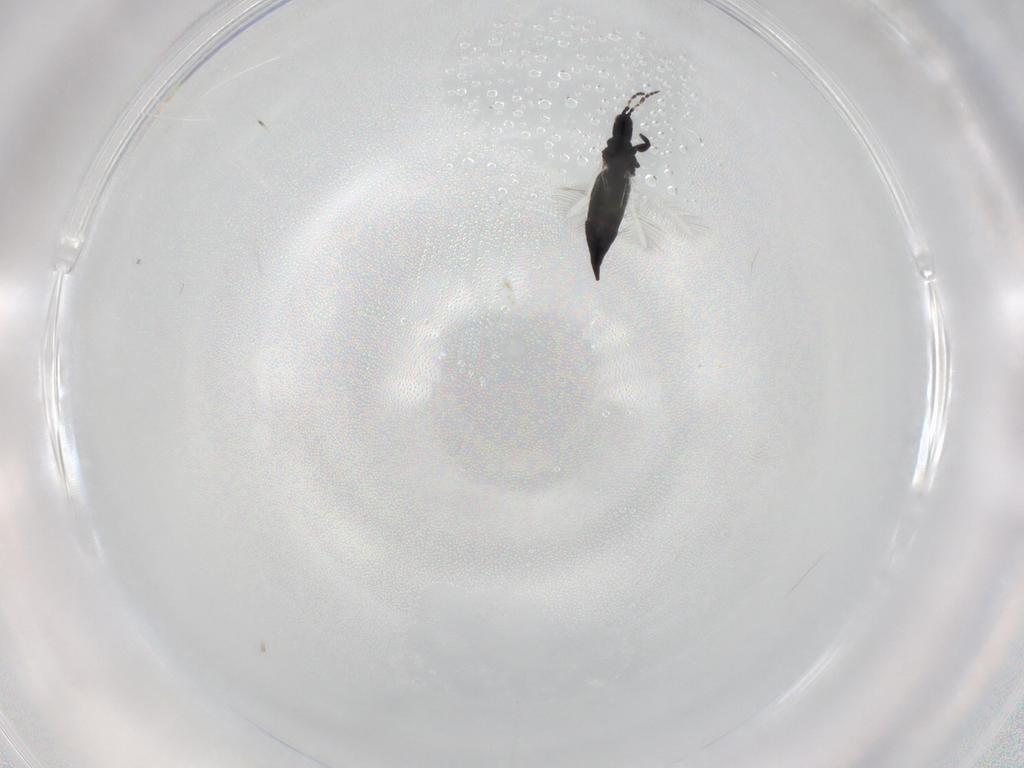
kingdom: Animalia
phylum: Arthropoda
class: Insecta
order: Thysanoptera
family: Phlaeothripidae
